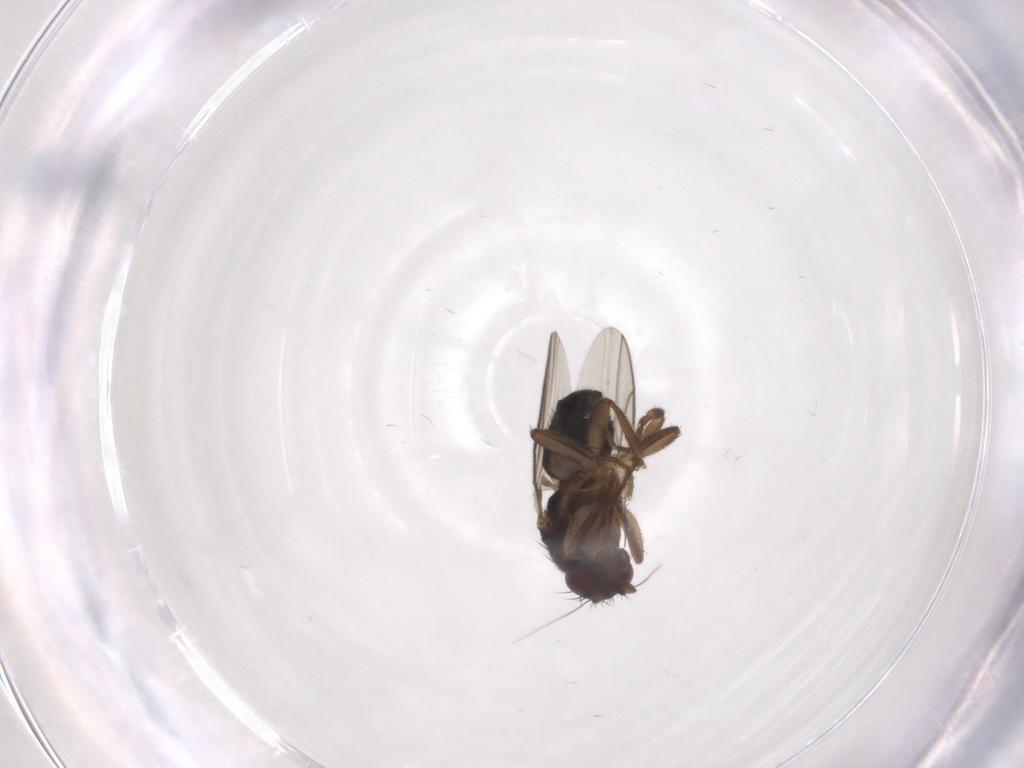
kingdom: Animalia
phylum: Arthropoda
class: Insecta
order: Diptera
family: Sphaeroceridae
